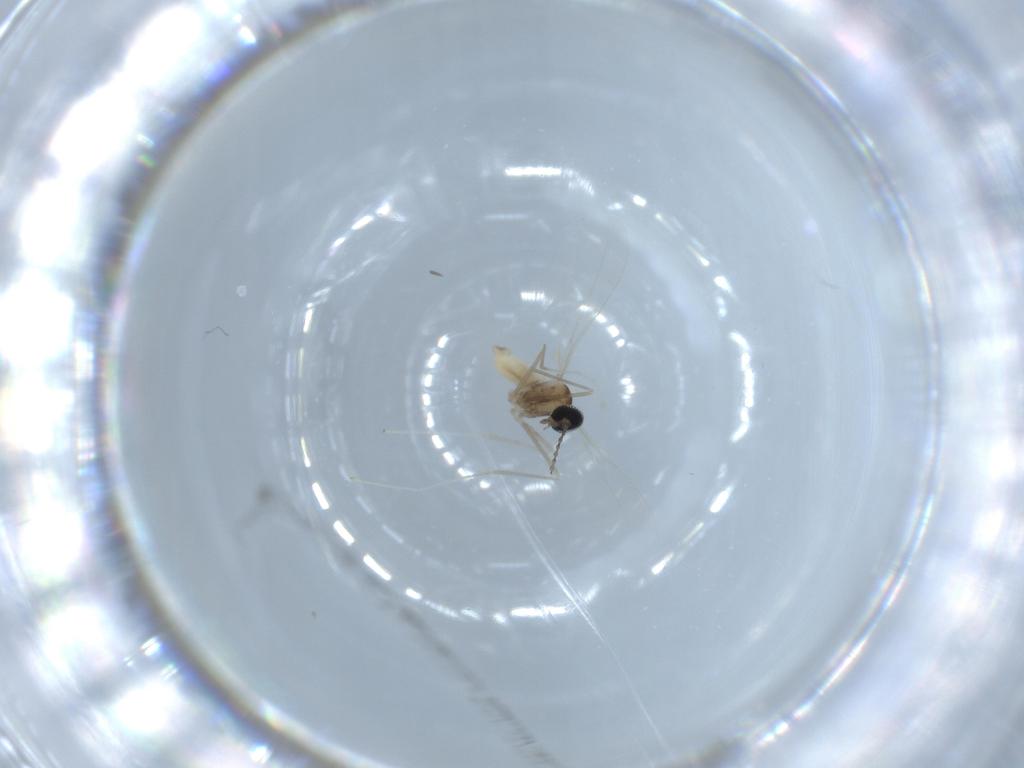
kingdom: Animalia
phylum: Arthropoda
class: Insecta
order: Diptera
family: Cecidomyiidae
